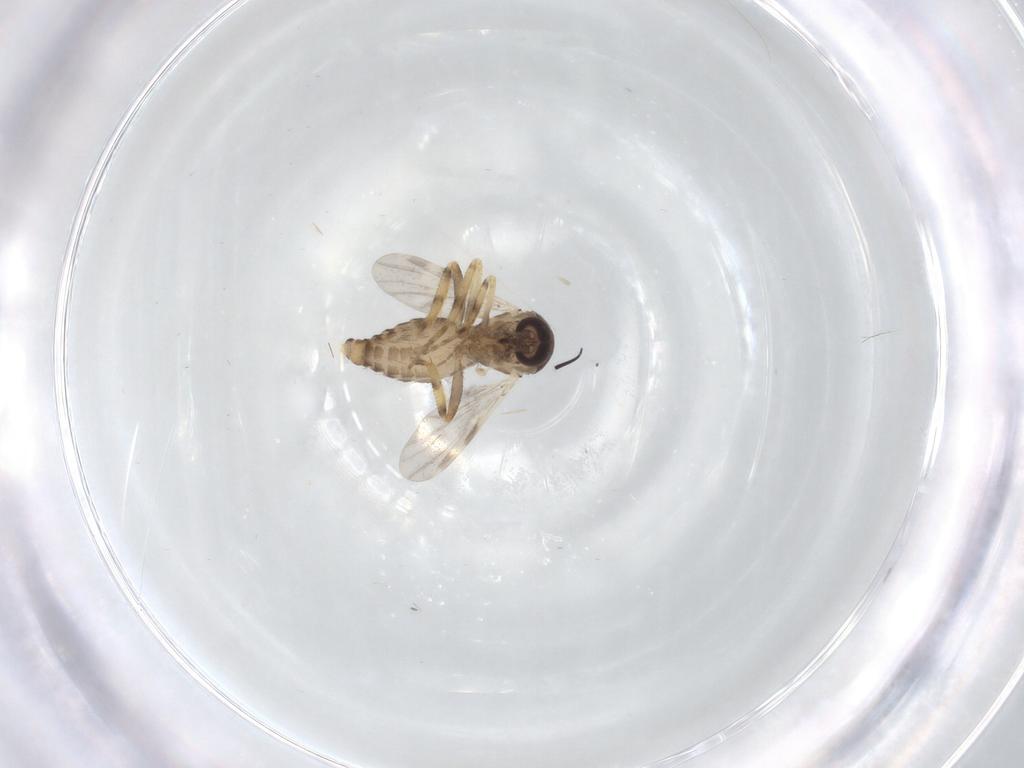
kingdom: Animalia
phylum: Arthropoda
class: Insecta
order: Diptera
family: Ceratopogonidae
